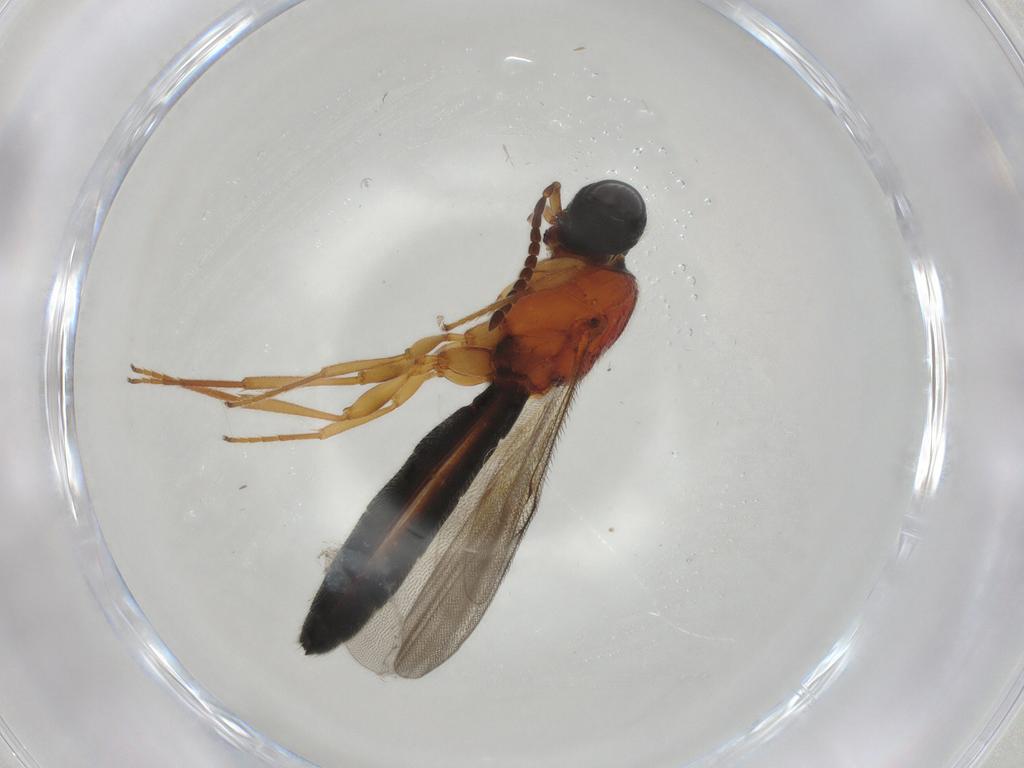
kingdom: Animalia
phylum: Arthropoda
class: Insecta
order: Hymenoptera
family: Scelionidae
